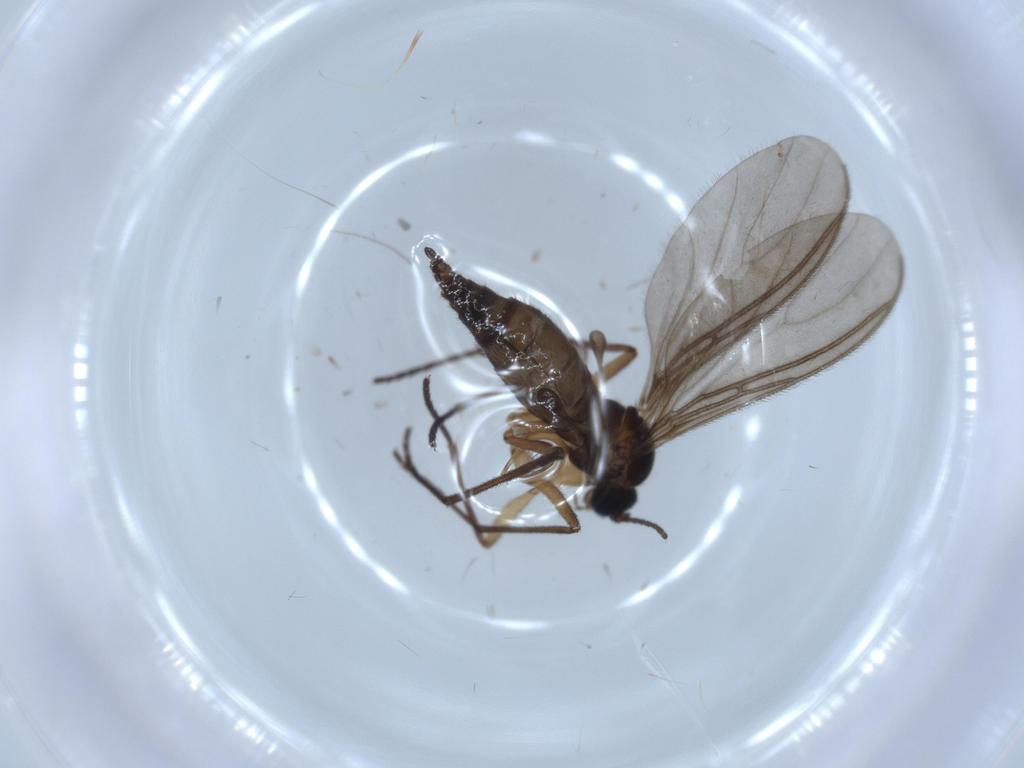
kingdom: Animalia
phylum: Arthropoda
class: Insecta
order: Diptera
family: Sciaridae
